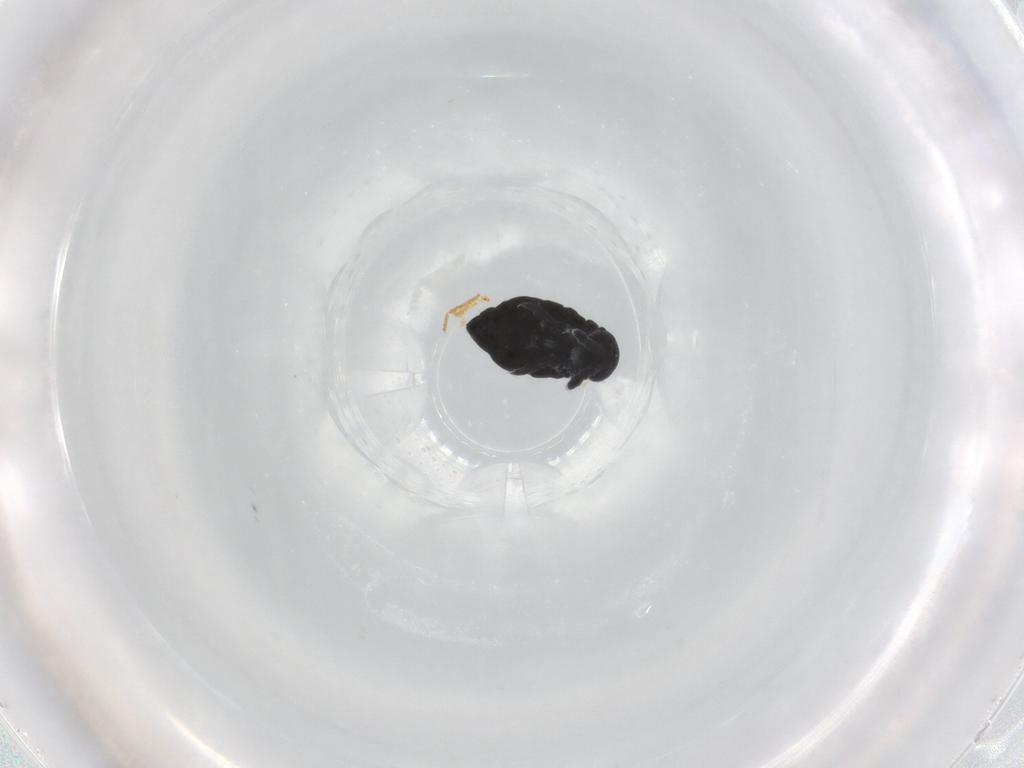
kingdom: Animalia
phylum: Arthropoda
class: Collembola
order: Poduromorpha
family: Hypogastruridae
